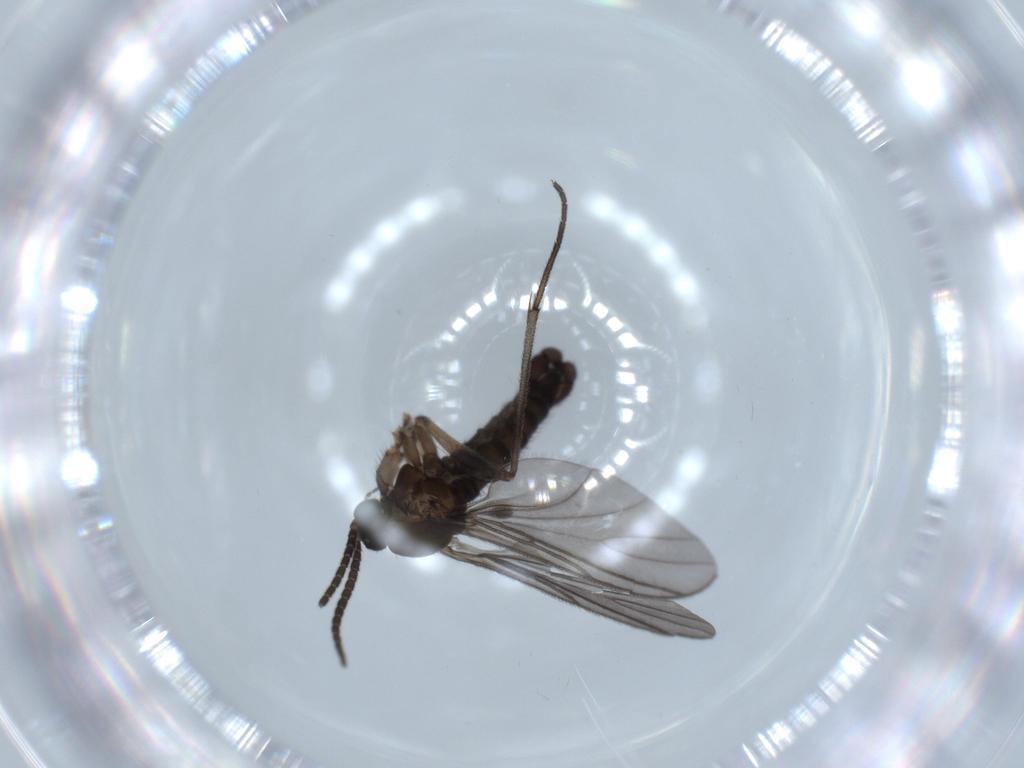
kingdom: Animalia
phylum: Arthropoda
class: Insecta
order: Diptera
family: Sciaridae
